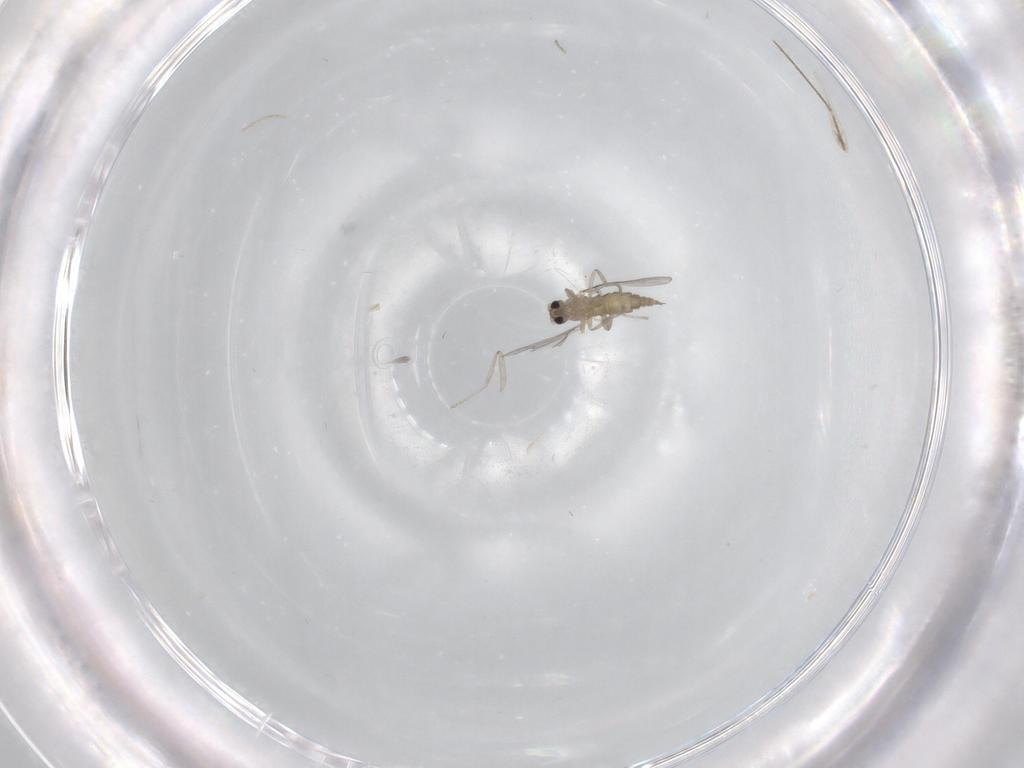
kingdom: Animalia
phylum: Arthropoda
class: Insecta
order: Diptera
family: Cecidomyiidae
